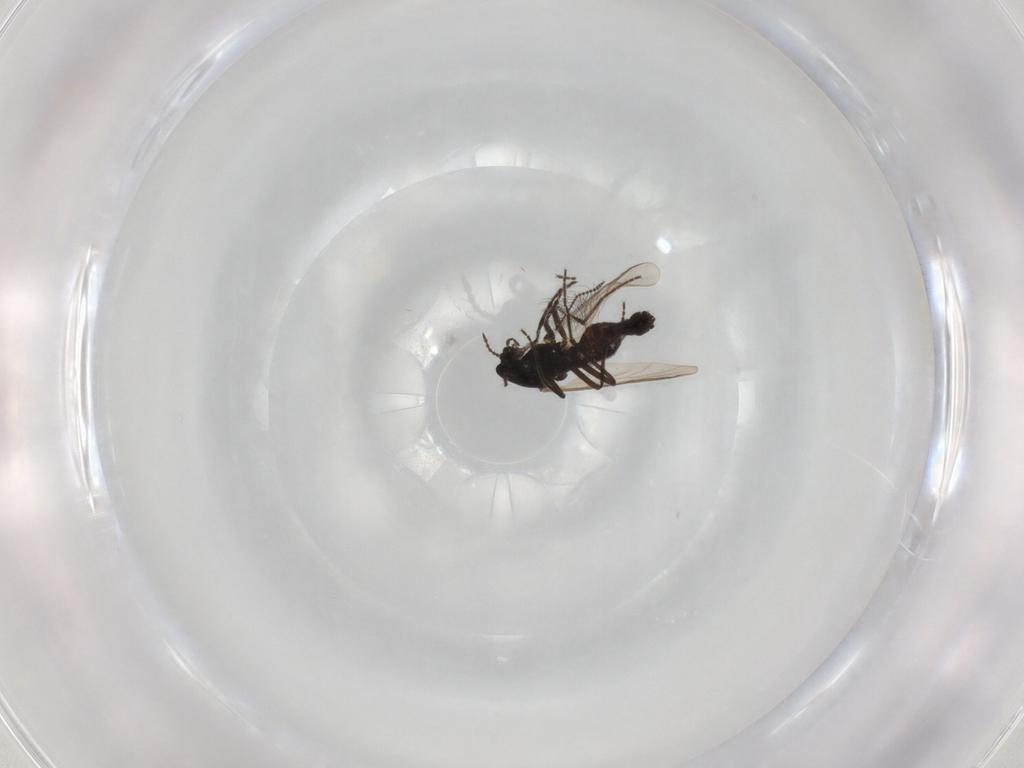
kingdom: Animalia
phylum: Arthropoda
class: Insecta
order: Diptera
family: Chironomidae
